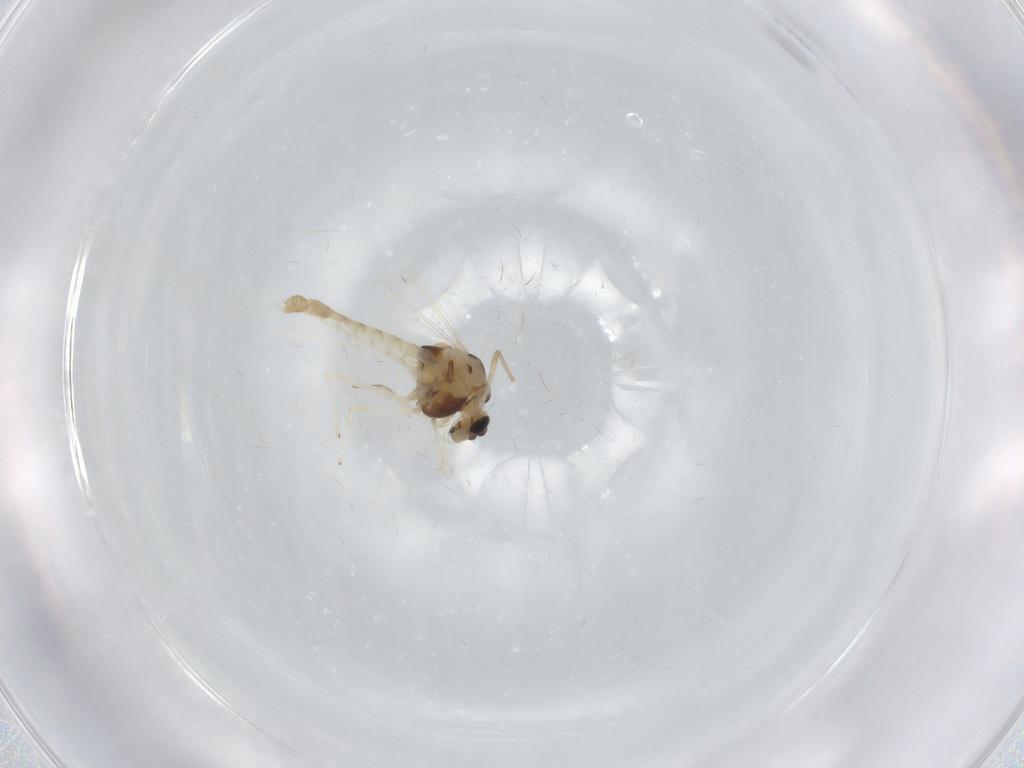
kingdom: Animalia
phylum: Arthropoda
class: Insecta
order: Diptera
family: Chironomidae
